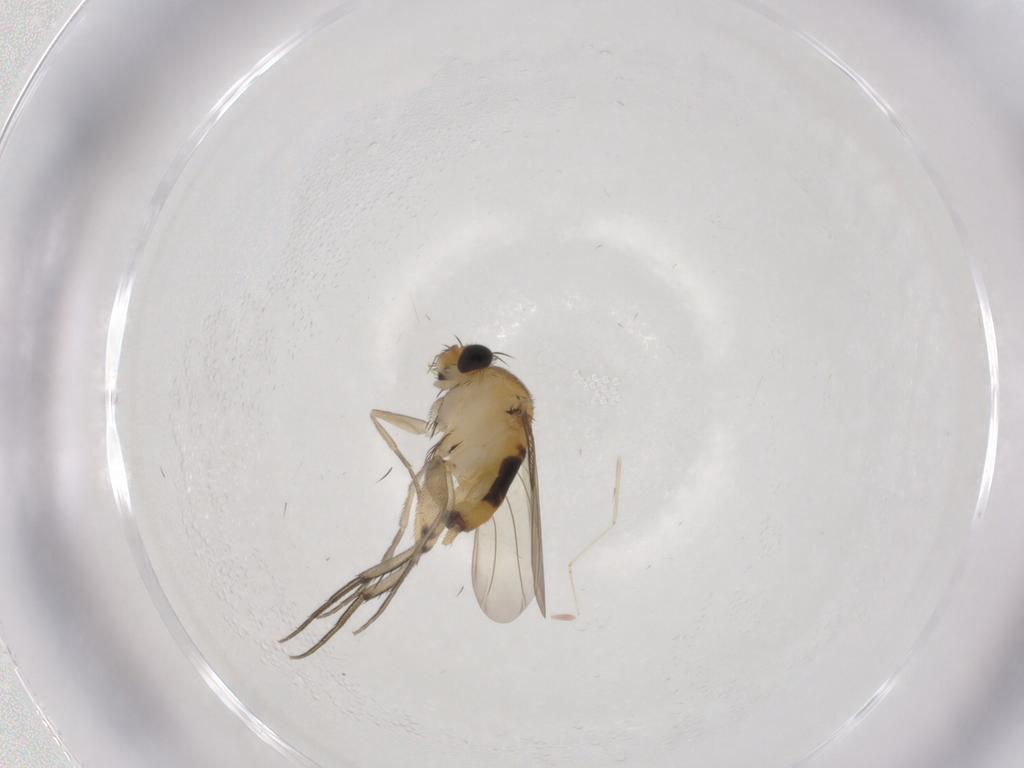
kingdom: Animalia
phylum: Arthropoda
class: Insecta
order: Diptera
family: Phoridae
